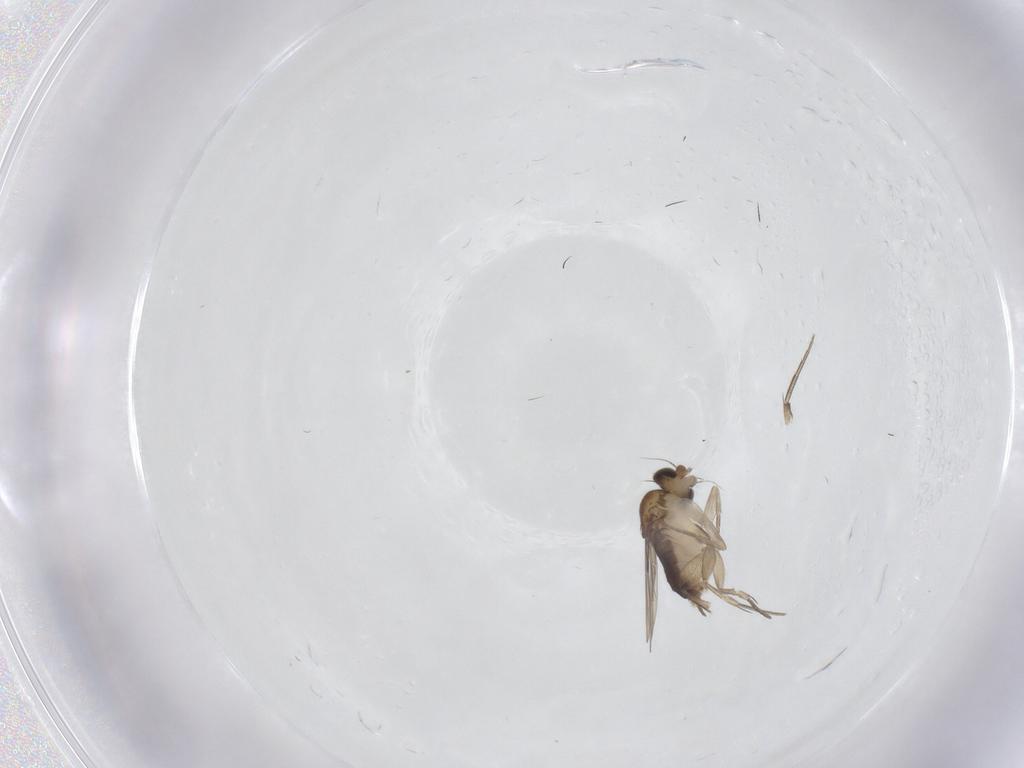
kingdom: Animalia
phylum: Arthropoda
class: Insecta
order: Diptera
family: Phoridae
